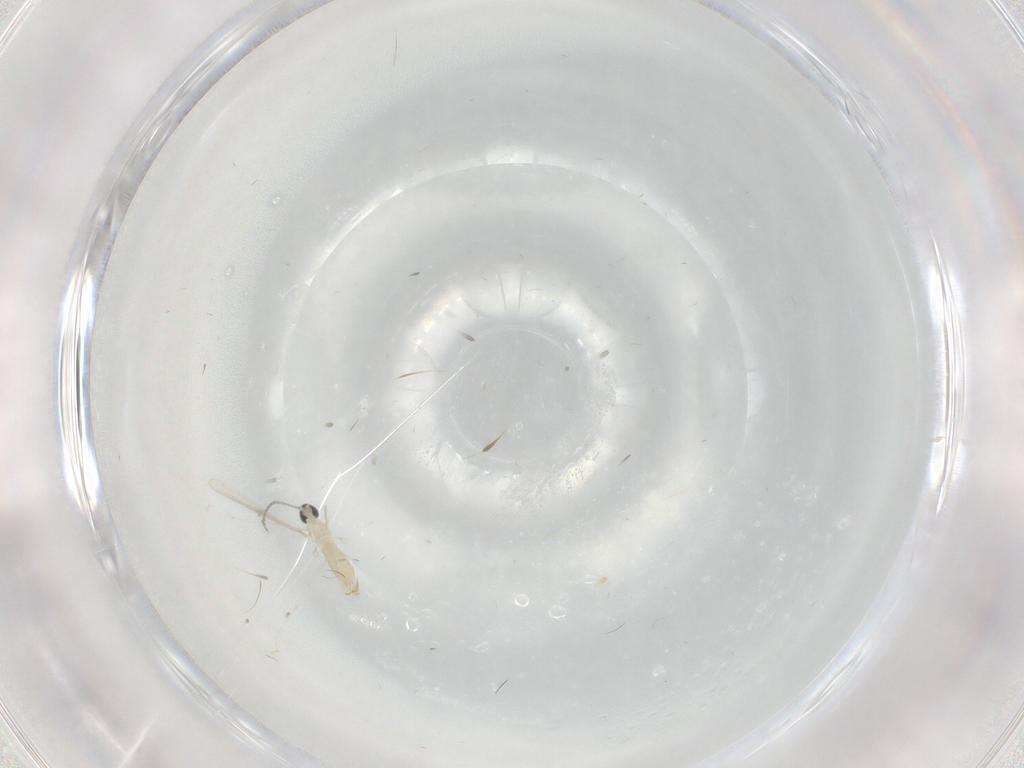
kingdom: Animalia
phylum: Arthropoda
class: Insecta
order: Diptera
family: Cecidomyiidae
